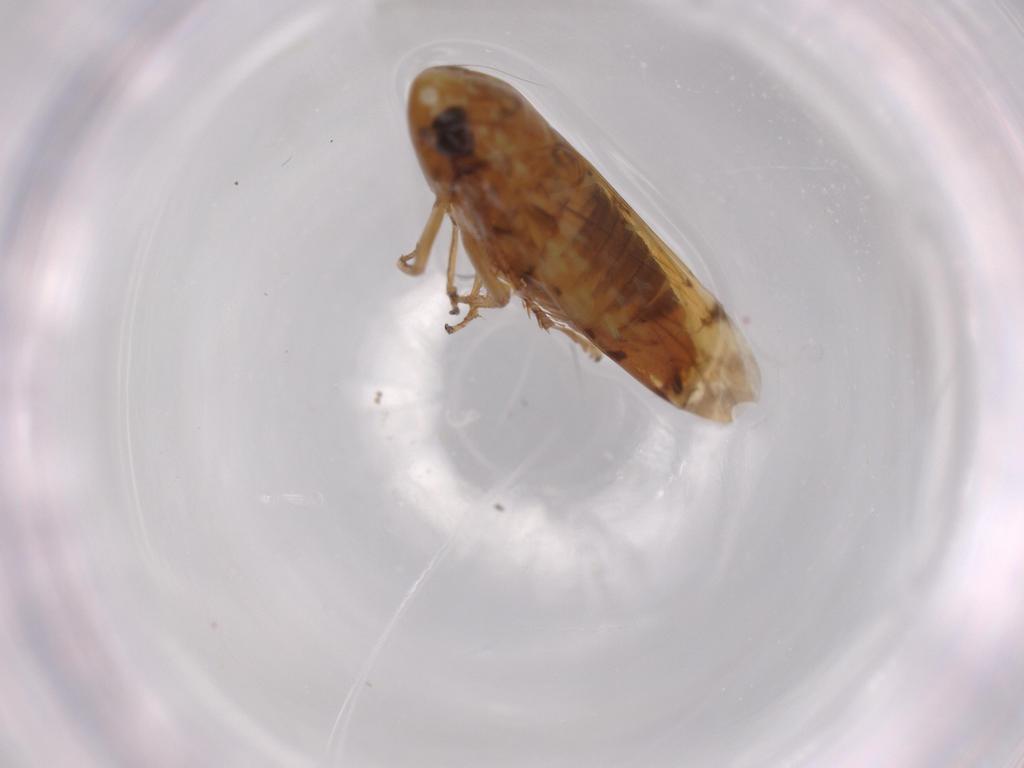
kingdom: Animalia
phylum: Arthropoda
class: Insecta
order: Hemiptera
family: Cicadellidae
